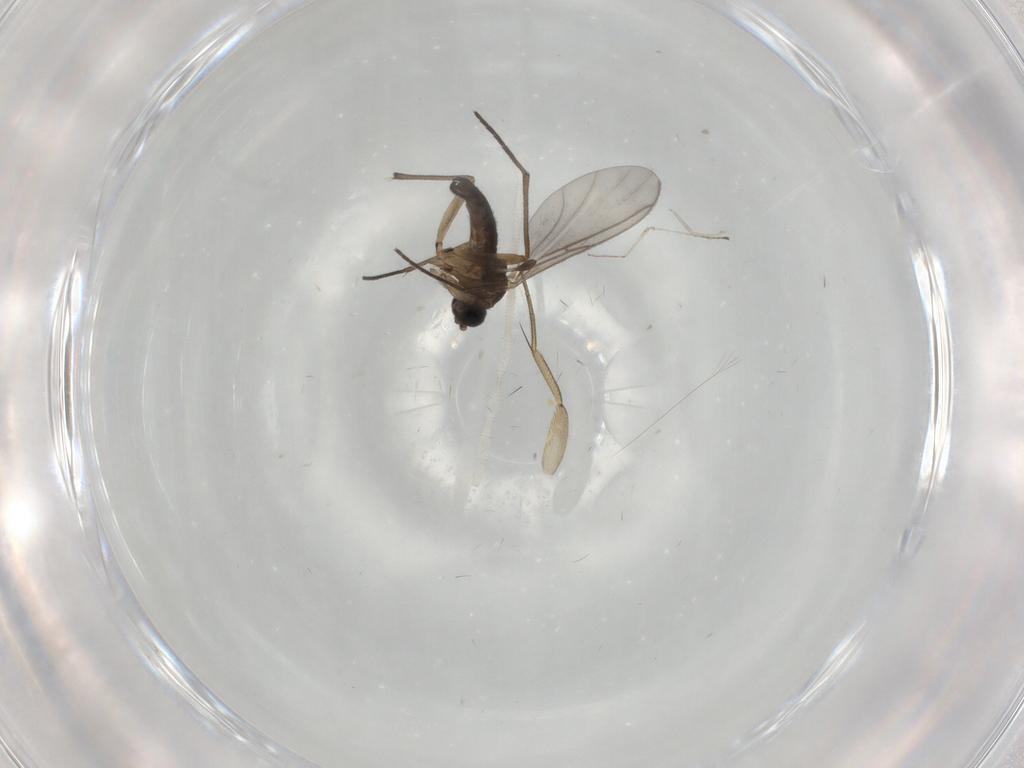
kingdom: Animalia
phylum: Arthropoda
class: Insecta
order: Diptera
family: Sciaridae
